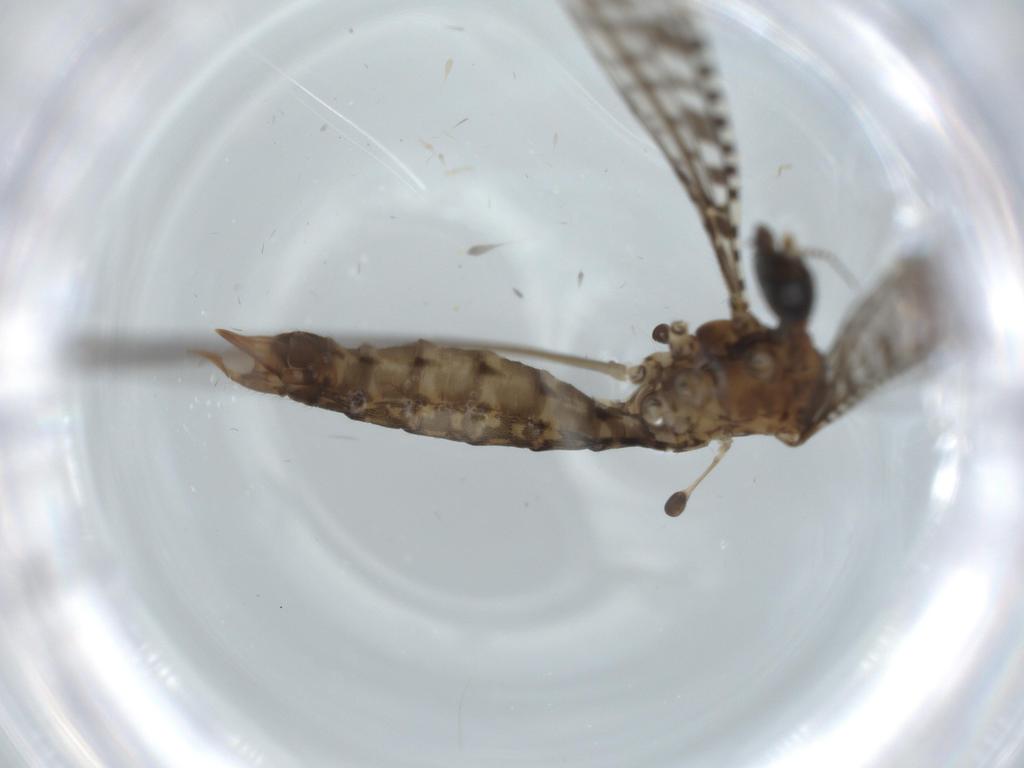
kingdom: Animalia
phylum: Arthropoda
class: Insecta
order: Diptera
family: Limoniidae
